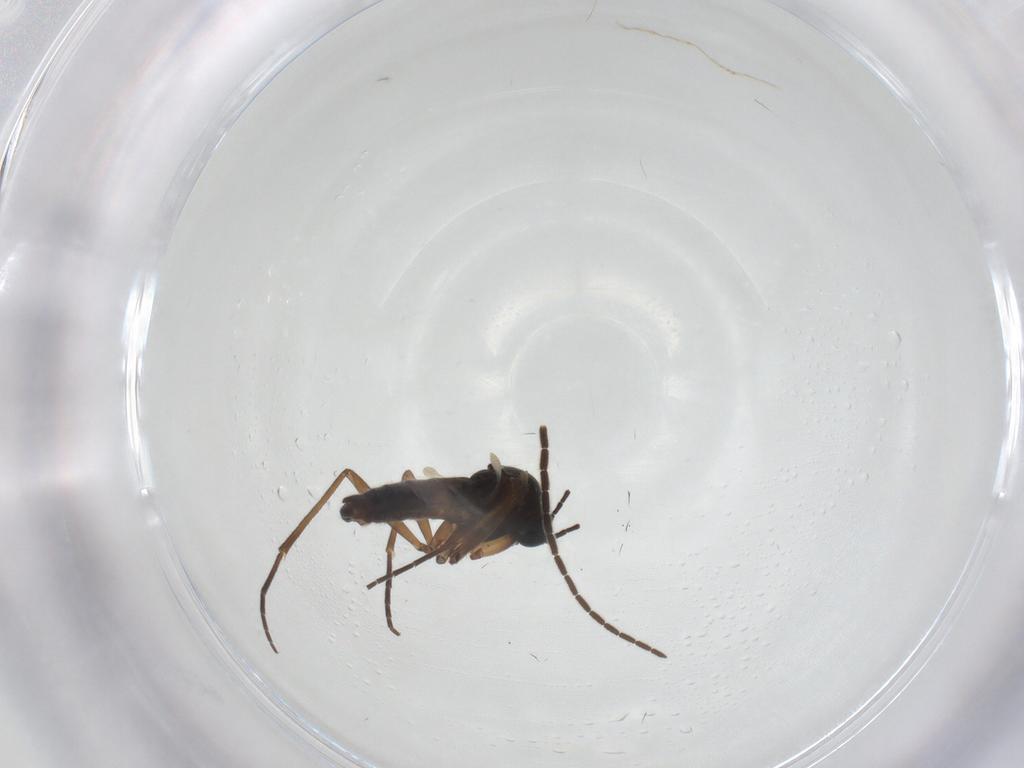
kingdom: Animalia
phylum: Arthropoda
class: Insecta
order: Diptera
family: Sciaridae
